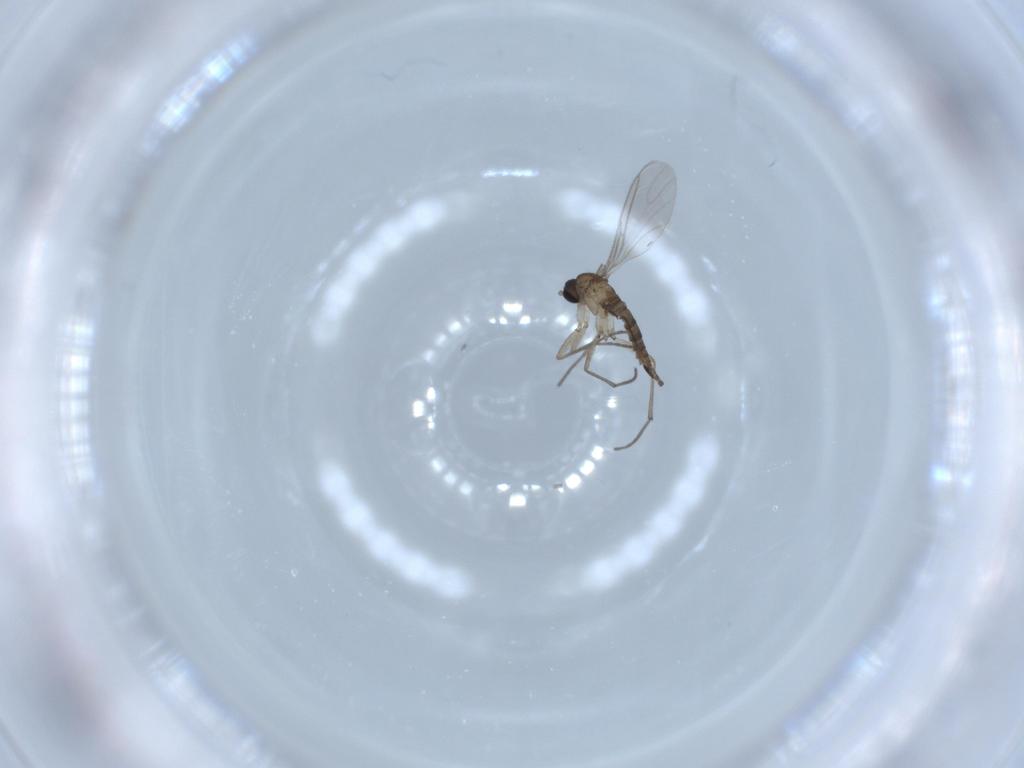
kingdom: Animalia
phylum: Arthropoda
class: Insecta
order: Diptera
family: Sciaridae
